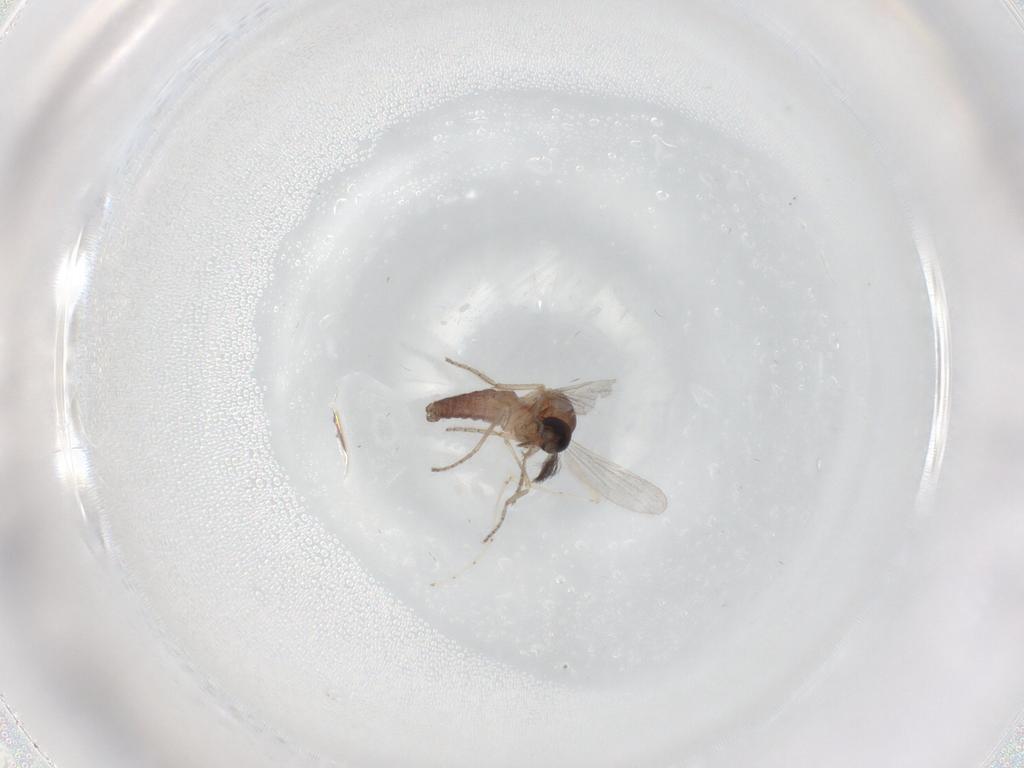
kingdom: Animalia
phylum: Arthropoda
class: Insecta
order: Diptera
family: Cecidomyiidae
